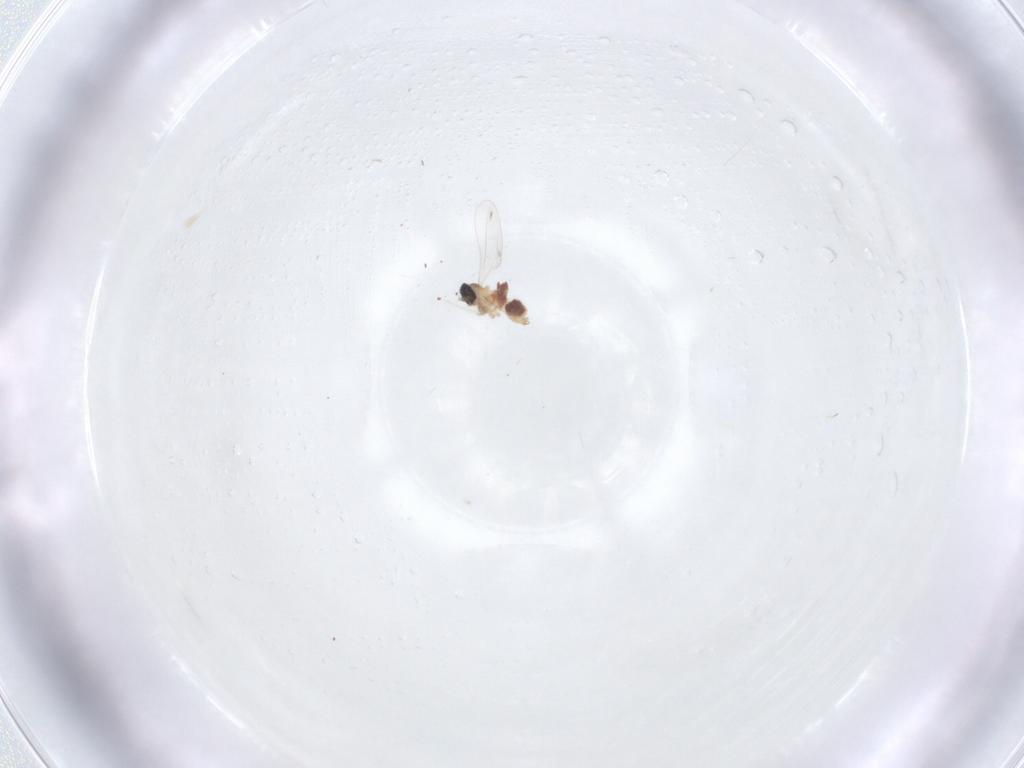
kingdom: Animalia
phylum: Arthropoda
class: Insecta
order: Diptera
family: Cecidomyiidae
